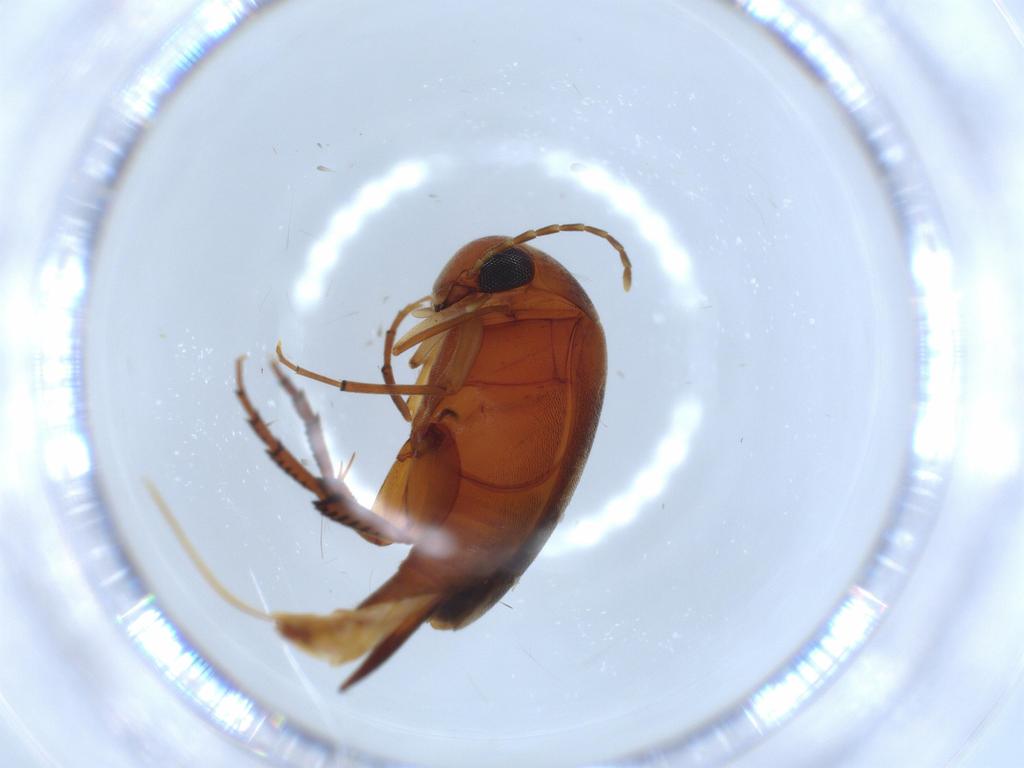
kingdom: Animalia
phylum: Arthropoda
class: Insecta
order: Coleoptera
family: Mordellidae
